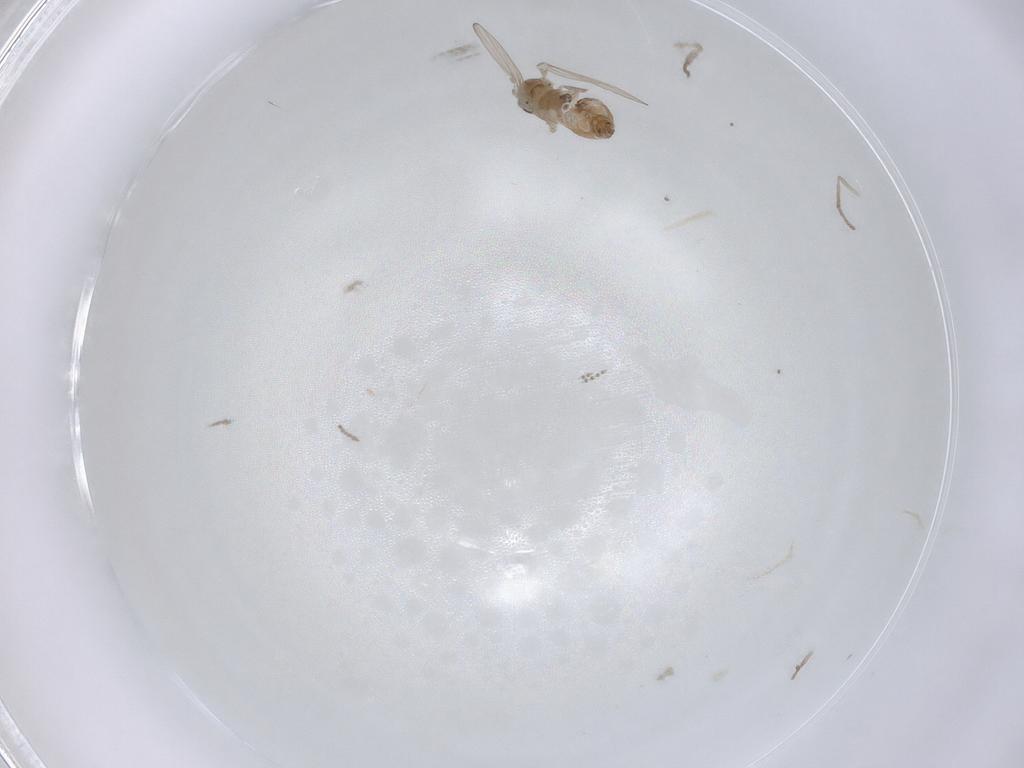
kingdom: Animalia
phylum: Arthropoda
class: Insecta
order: Diptera
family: Psychodidae
